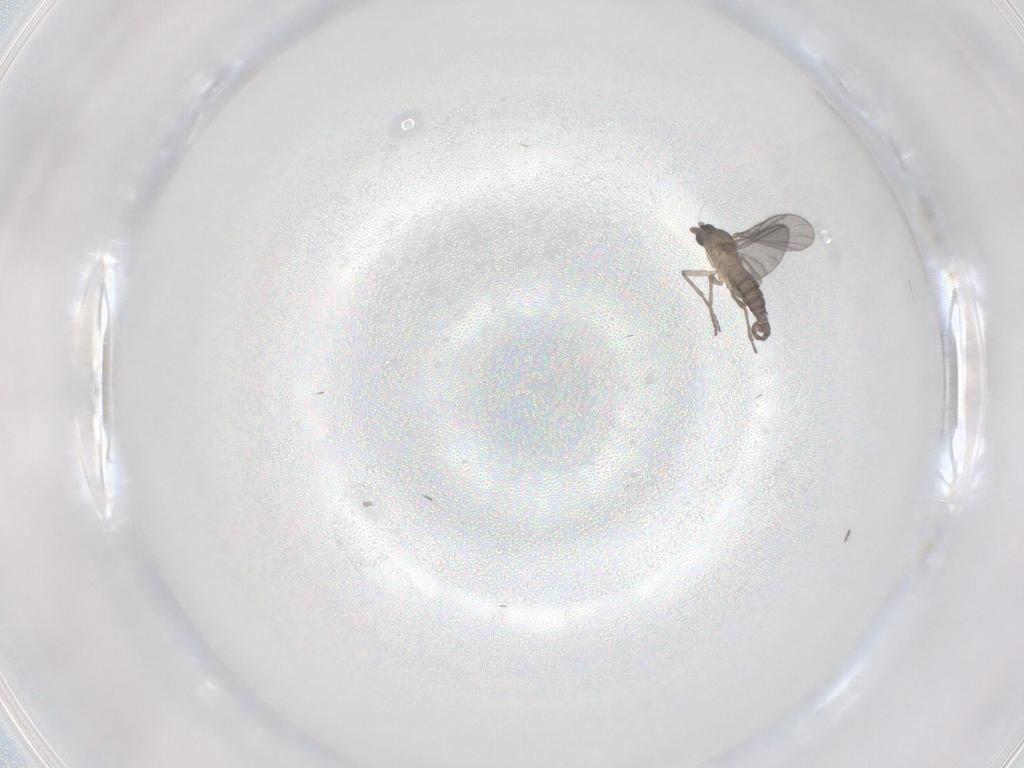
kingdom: Animalia
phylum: Arthropoda
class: Insecta
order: Diptera
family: Sciaridae
